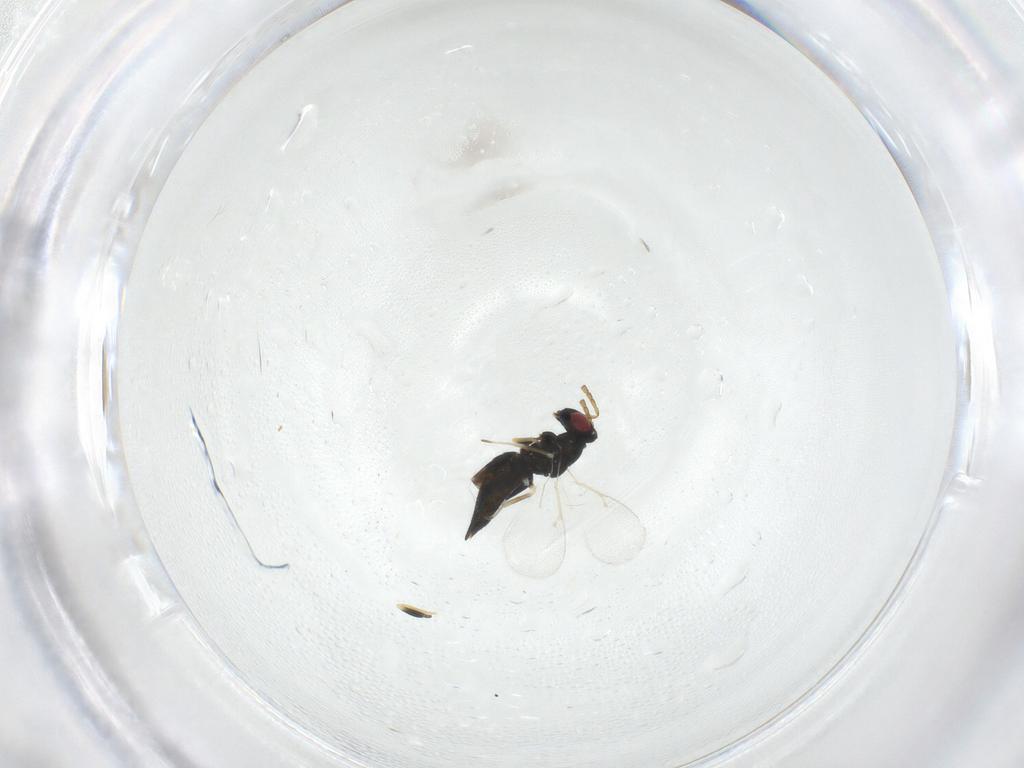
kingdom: Animalia
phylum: Arthropoda
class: Insecta
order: Hymenoptera
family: Eulophidae
